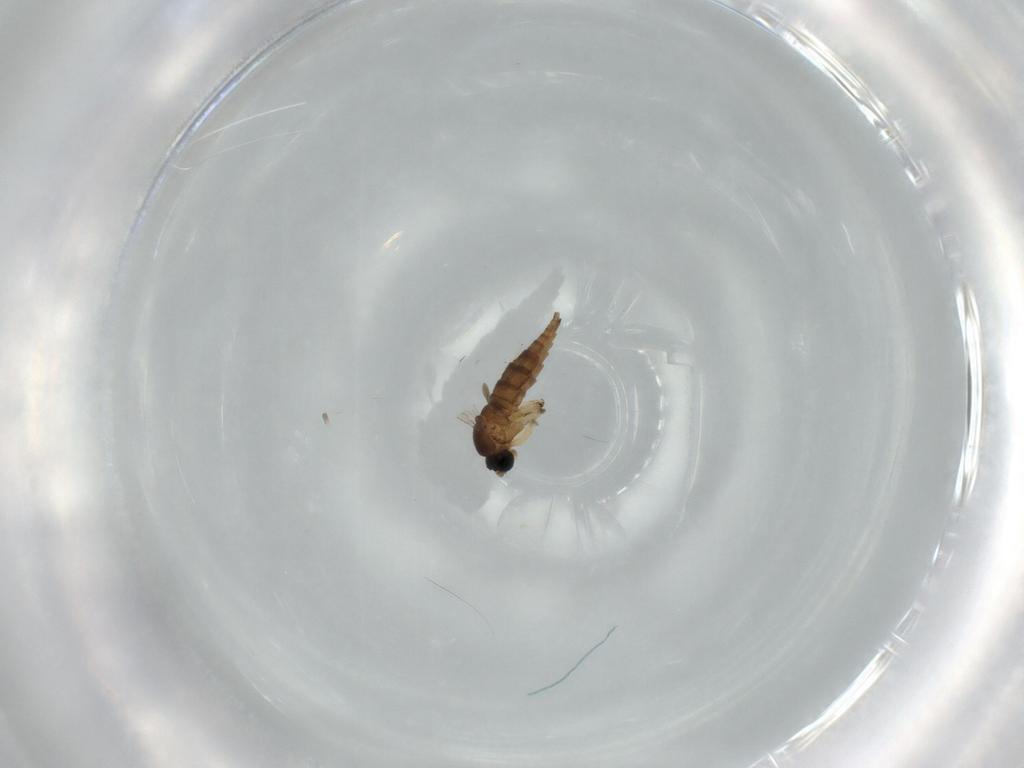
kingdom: Animalia
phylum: Arthropoda
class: Insecta
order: Diptera
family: Sciaridae
